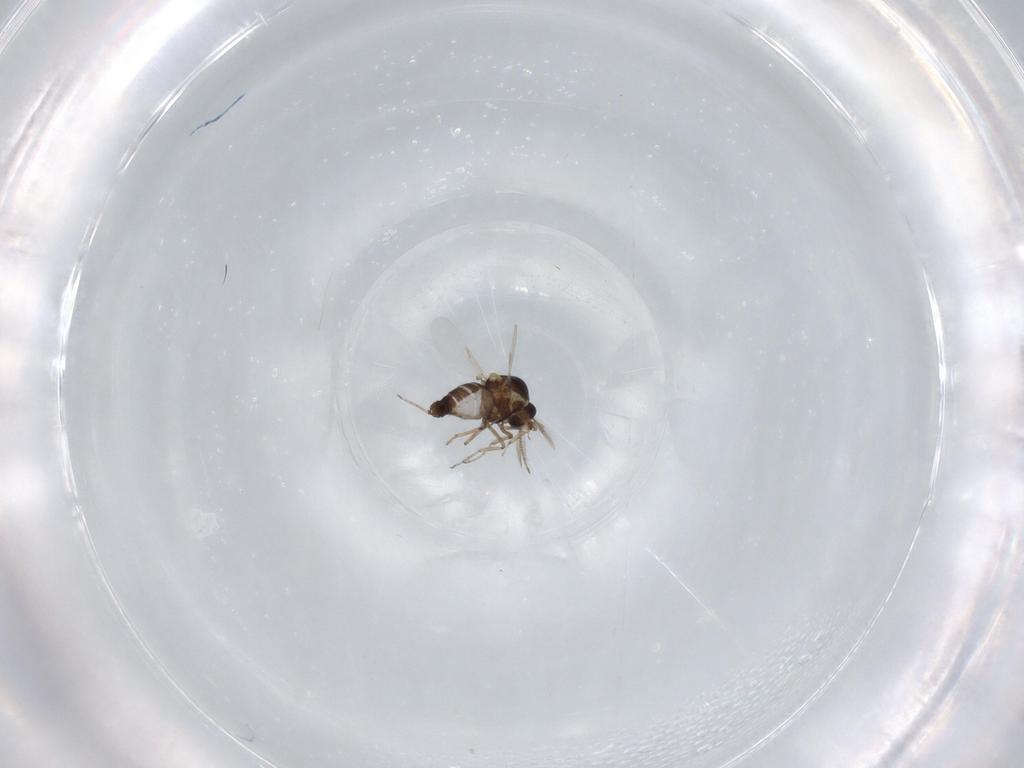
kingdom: Animalia
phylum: Arthropoda
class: Insecta
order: Diptera
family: Ceratopogonidae
